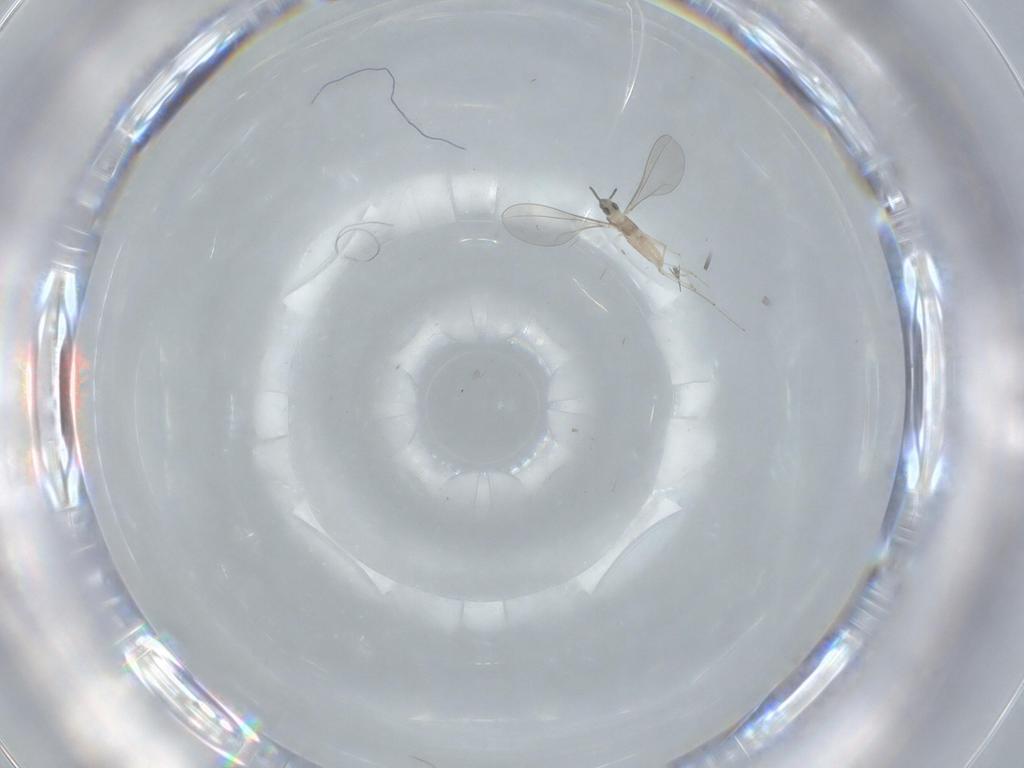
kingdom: Animalia
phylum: Arthropoda
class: Insecta
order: Diptera
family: Cecidomyiidae
